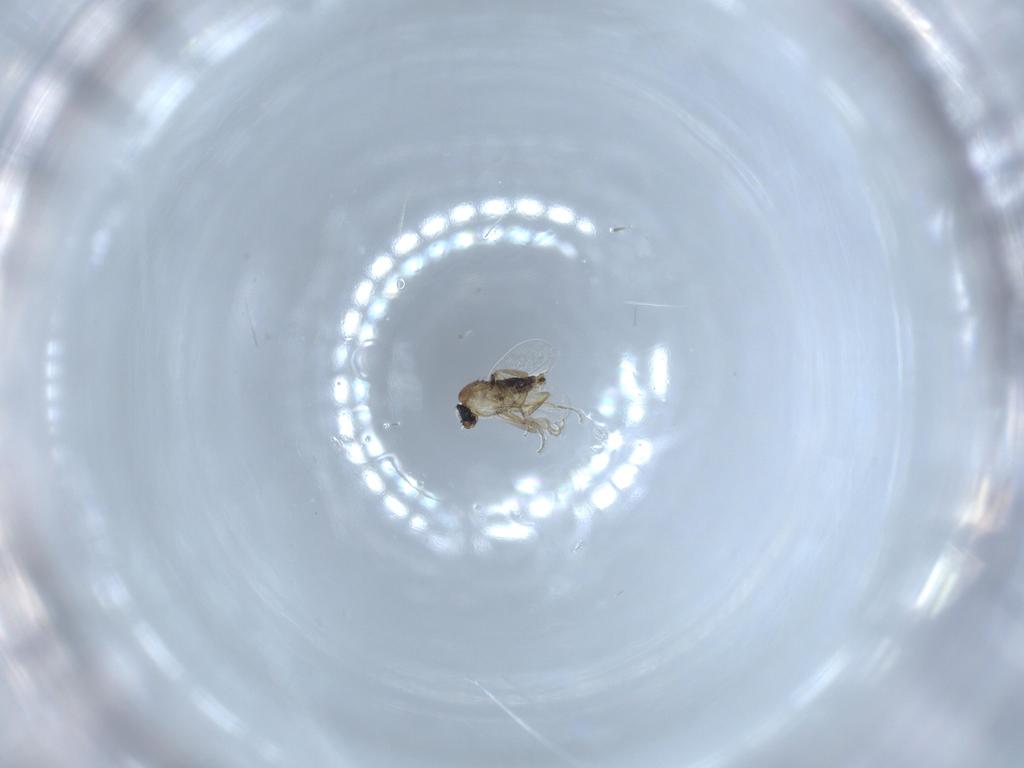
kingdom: Animalia
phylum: Arthropoda
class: Insecta
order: Diptera
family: Phoridae
